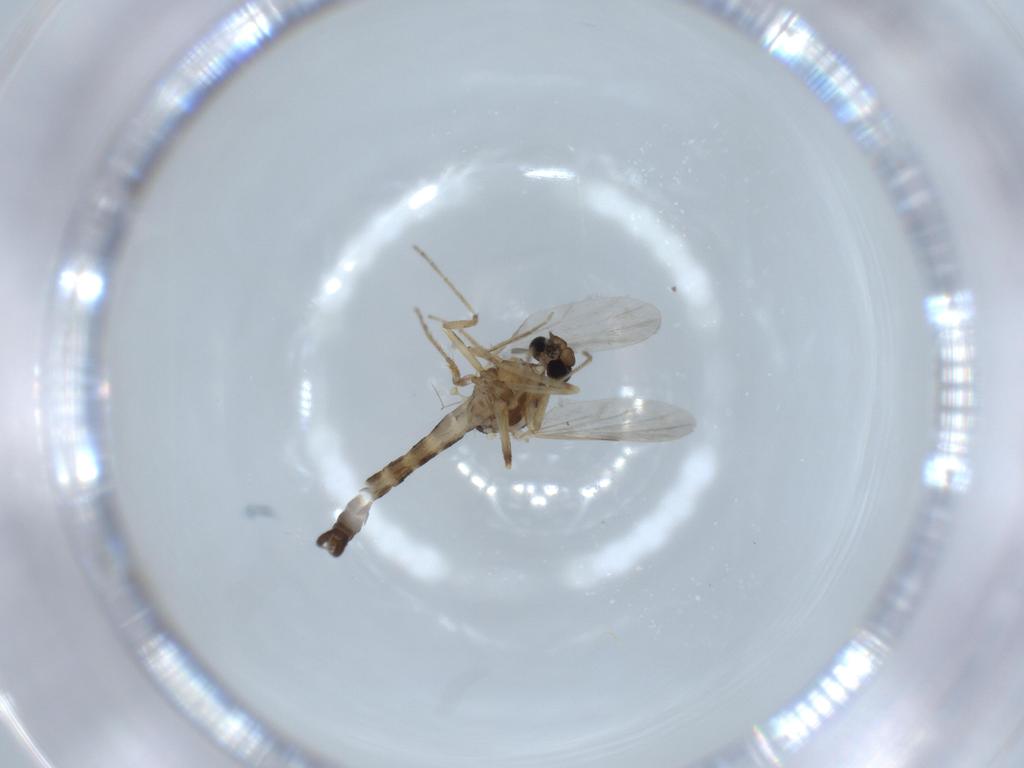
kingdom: Animalia
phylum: Arthropoda
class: Insecta
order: Diptera
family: Ceratopogonidae
